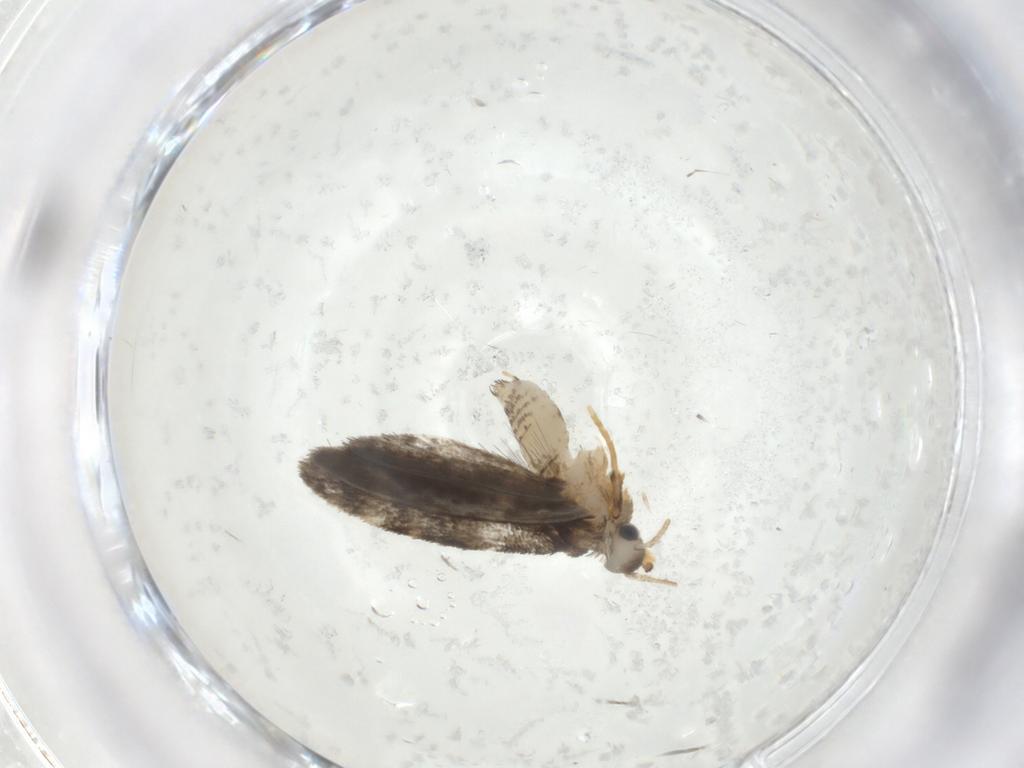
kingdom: Animalia
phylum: Arthropoda
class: Insecta
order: Lepidoptera
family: Psychidae
